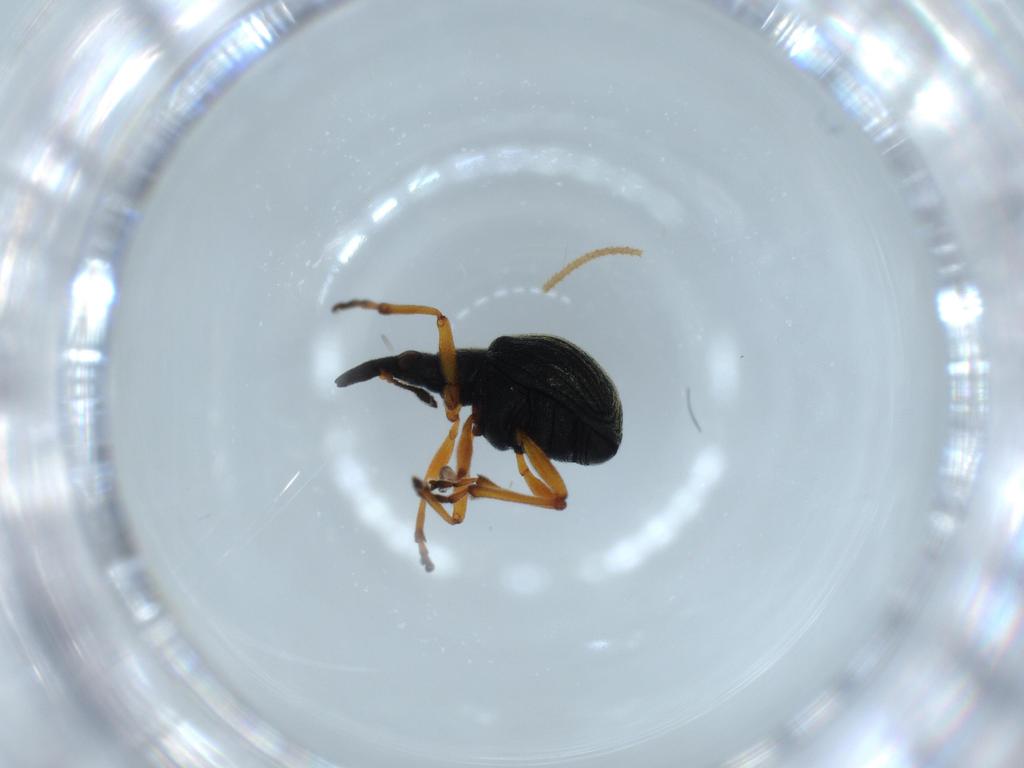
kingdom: Animalia
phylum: Arthropoda
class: Insecta
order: Coleoptera
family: Brentidae
